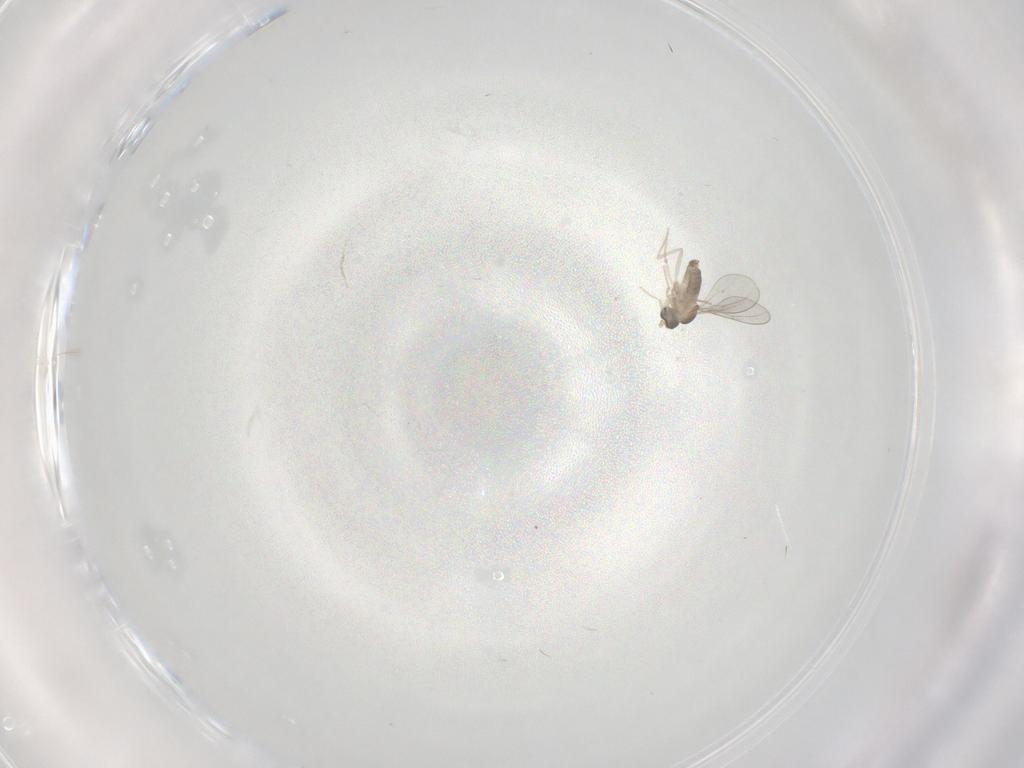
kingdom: Animalia
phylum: Arthropoda
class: Insecta
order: Diptera
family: Cecidomyiidae
